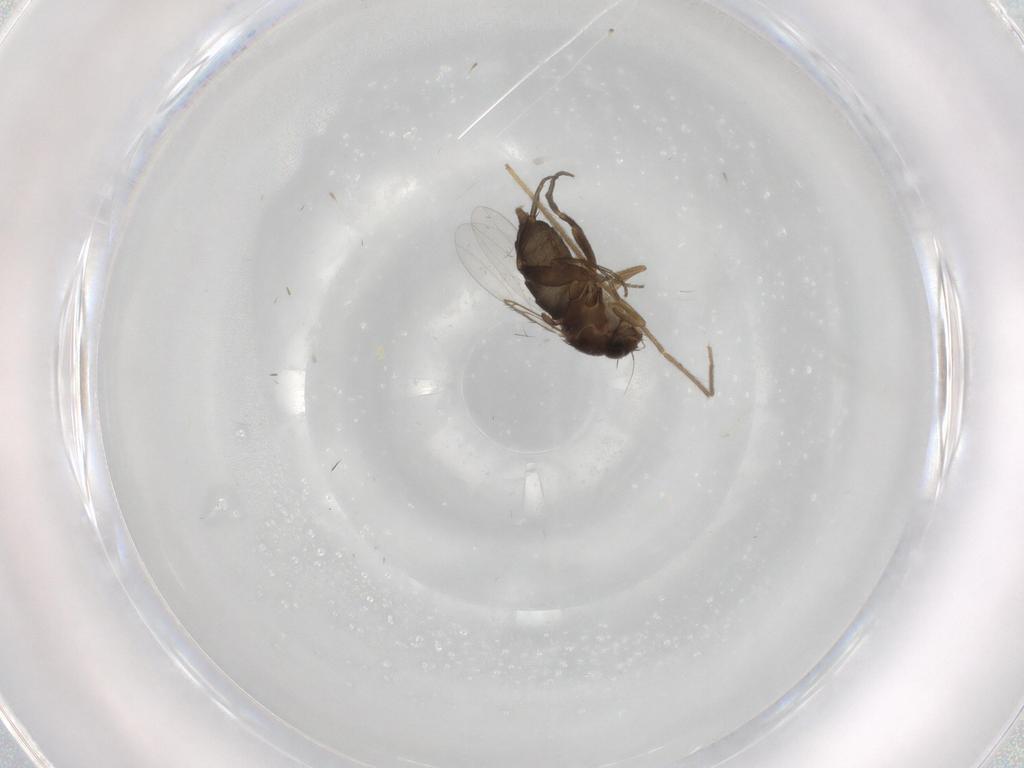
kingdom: Animalia
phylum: Arthropoda
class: Insecta
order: Diptera
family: Phoridae
